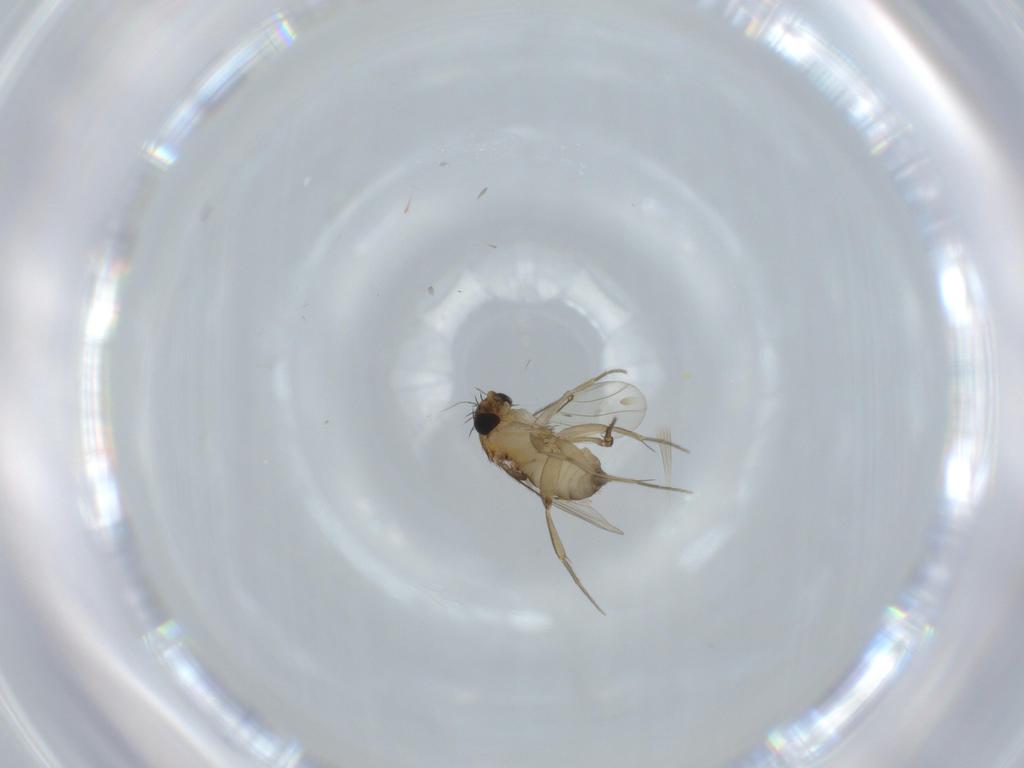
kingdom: Animalia
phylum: Arthropoda
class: Insecta
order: Diptera
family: Phoridae
